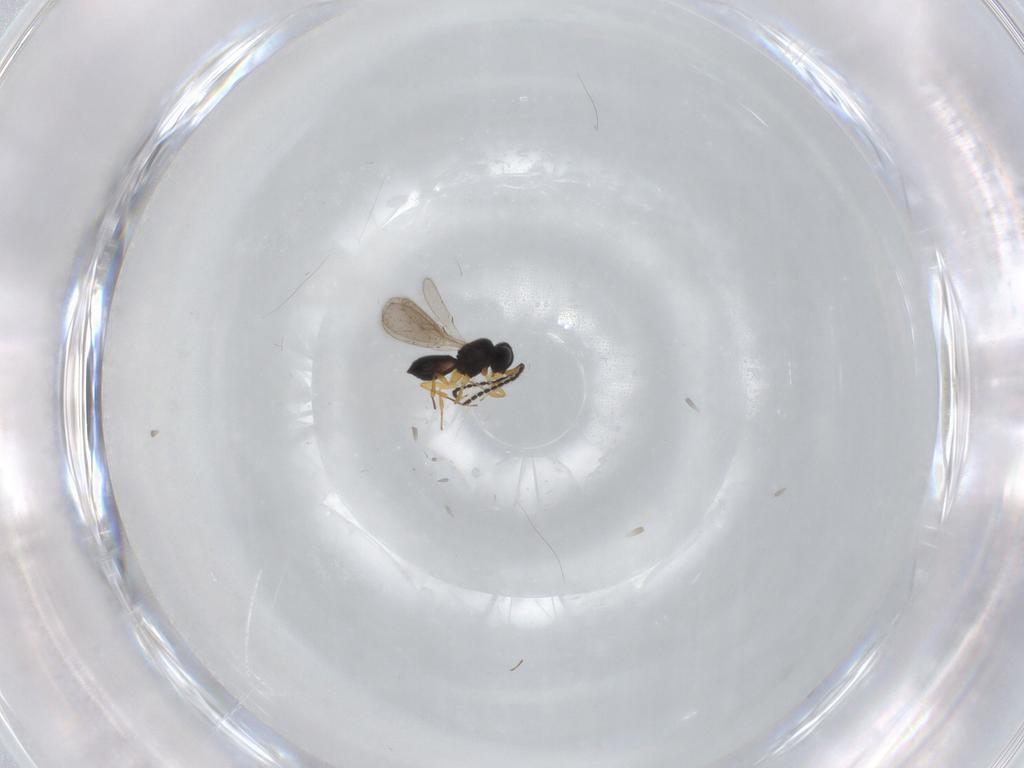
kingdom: Animalia
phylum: Arthropoda
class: Insecta
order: Hymenoptera
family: Scelionidae
